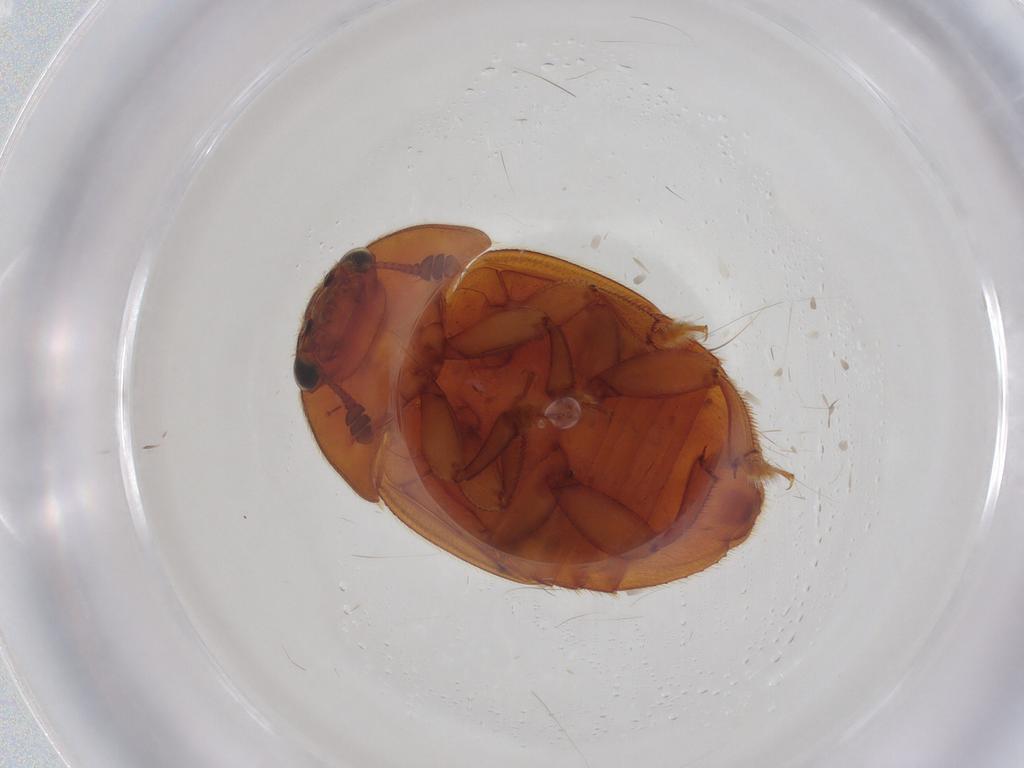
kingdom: Animalia
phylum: Arthropoda
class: Insecta
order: Coleoptera
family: Nitidulidae
